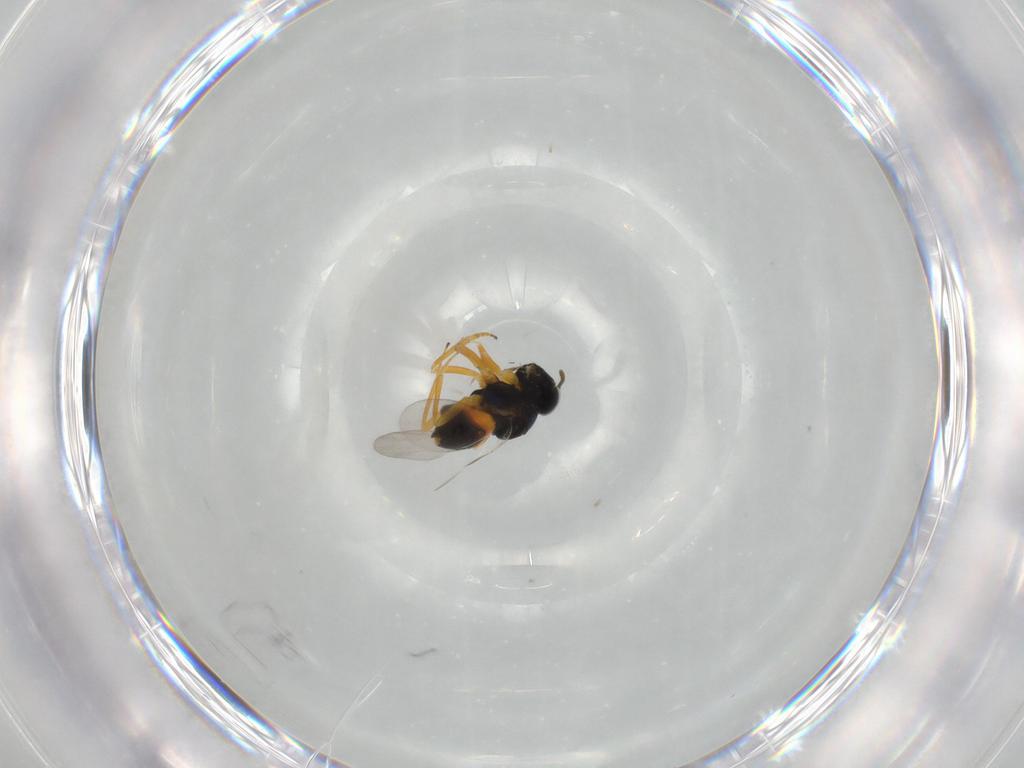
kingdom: Animalia
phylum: Arthropoda
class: Insecta
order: Hymenoptera
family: Encyrtidae
